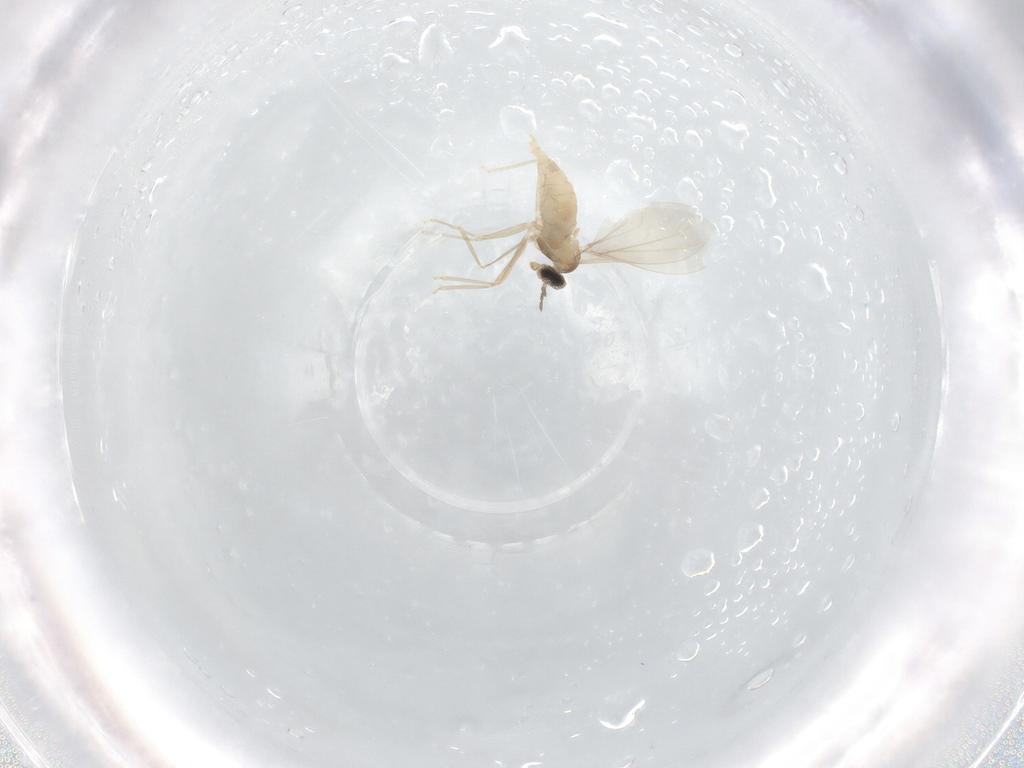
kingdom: Animalia
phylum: Arthropoda
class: Insecta
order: Diptera
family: Cecidomyiidae
